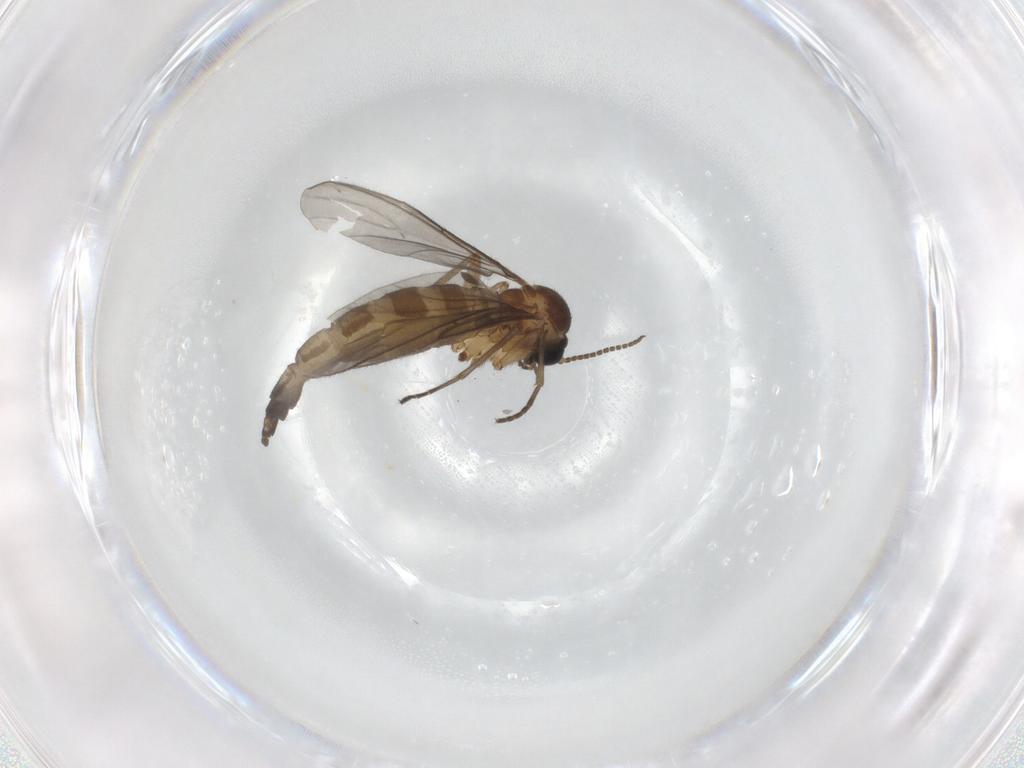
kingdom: Animalia
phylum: Arthropoda
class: Insecta
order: Diptera
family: Sciaridae
